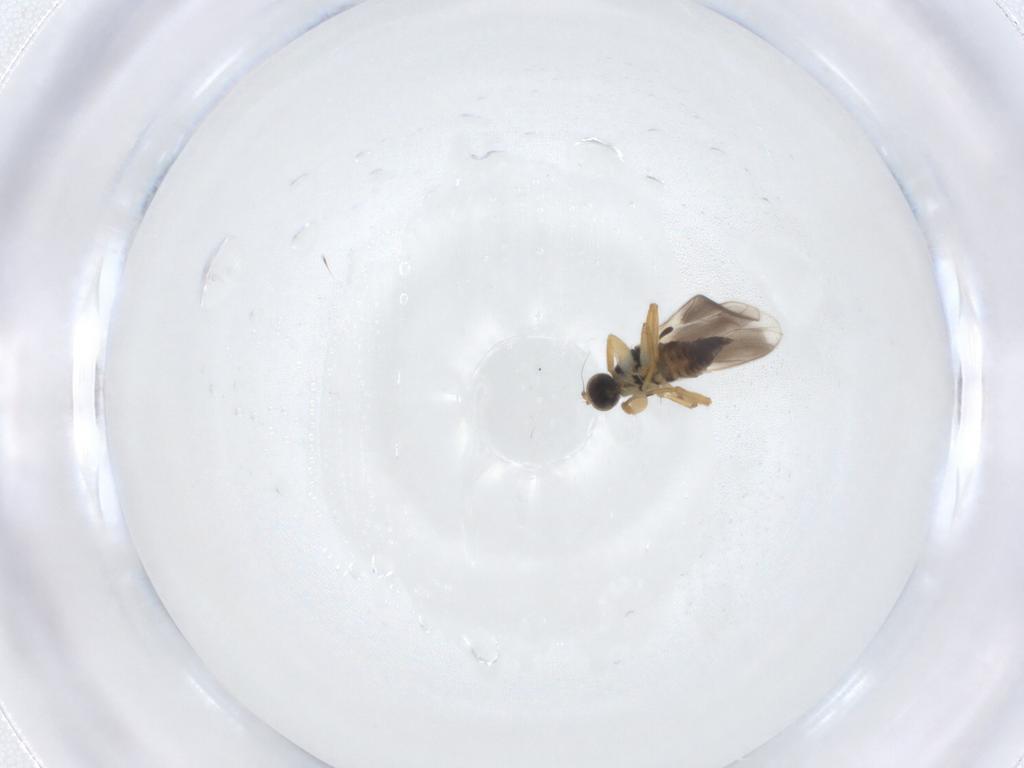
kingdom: Animalia
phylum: Arthropoda
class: Insecta
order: Diptera
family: Hybotidae
